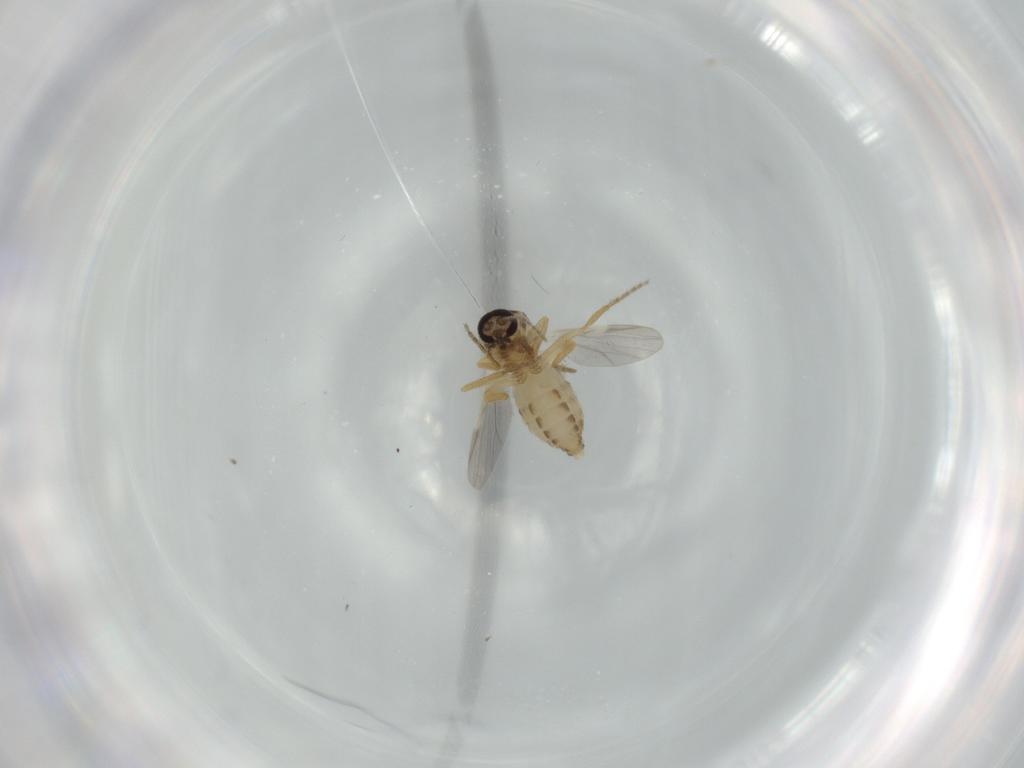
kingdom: Animalia
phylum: Arthropoda
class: Insecta
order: Diptera
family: Sciaridae
